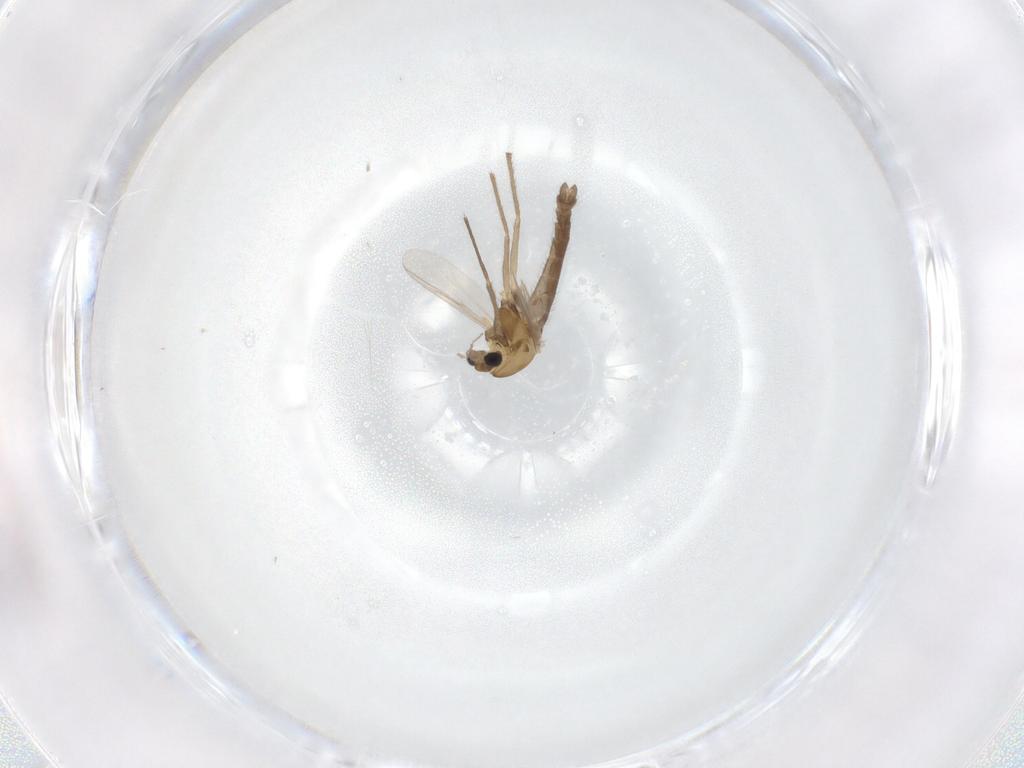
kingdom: Animalia
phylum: Arthropoda
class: Insecta
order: Diptera
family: Chironomidae
